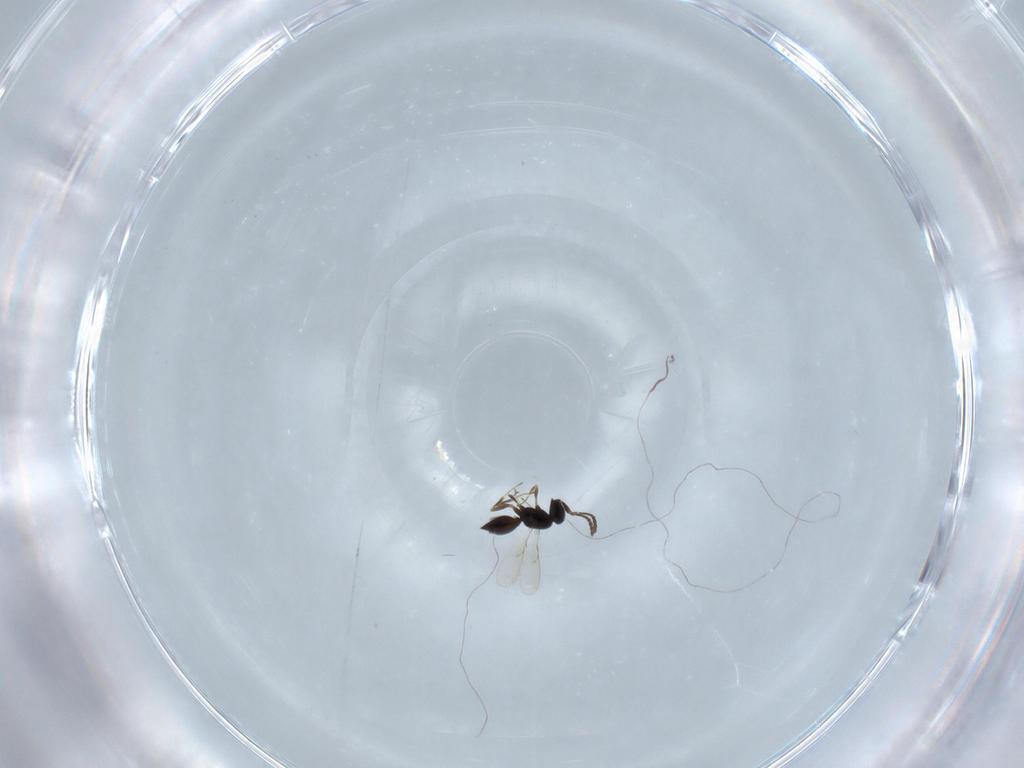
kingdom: Animalia
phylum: Arthropoda
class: Insecta
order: Hymenoptera
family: Scelionidae
